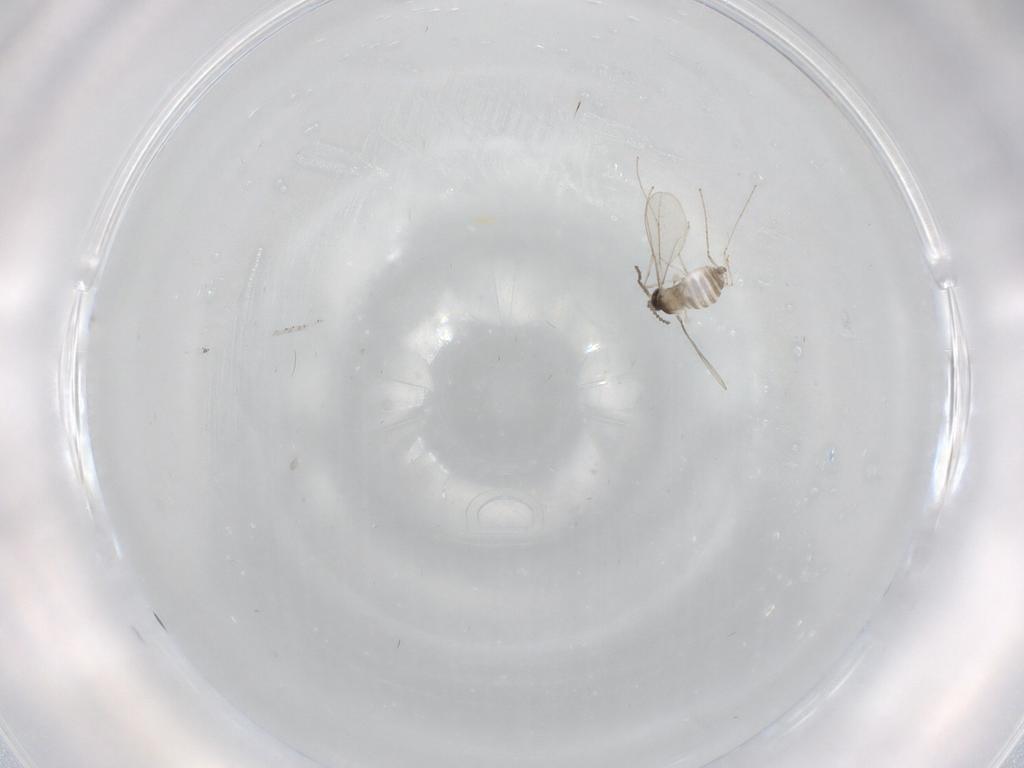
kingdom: Animalia
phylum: Arthropoda
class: Insecta
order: Diptera
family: Cecidomyiidae
